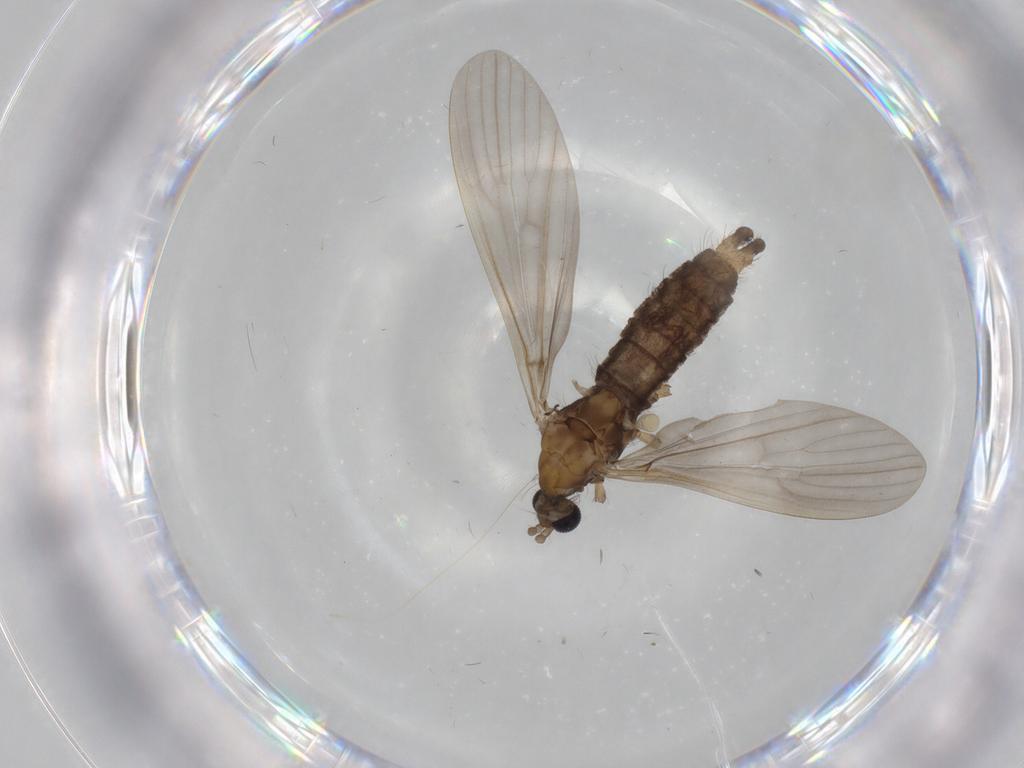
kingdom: Animalia
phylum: Arthropoda
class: Insecta
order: Diptera
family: Limoniidae
